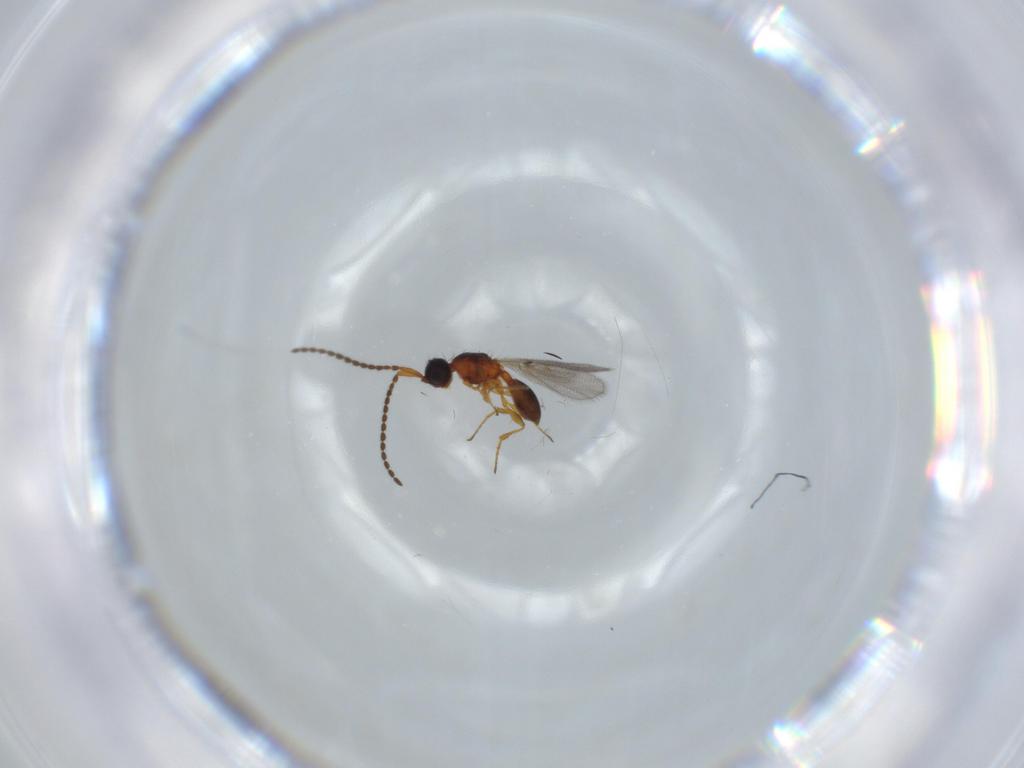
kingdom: Animalia
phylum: Arthropoda
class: Insecta
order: Hymenoptera
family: Diapriidae
